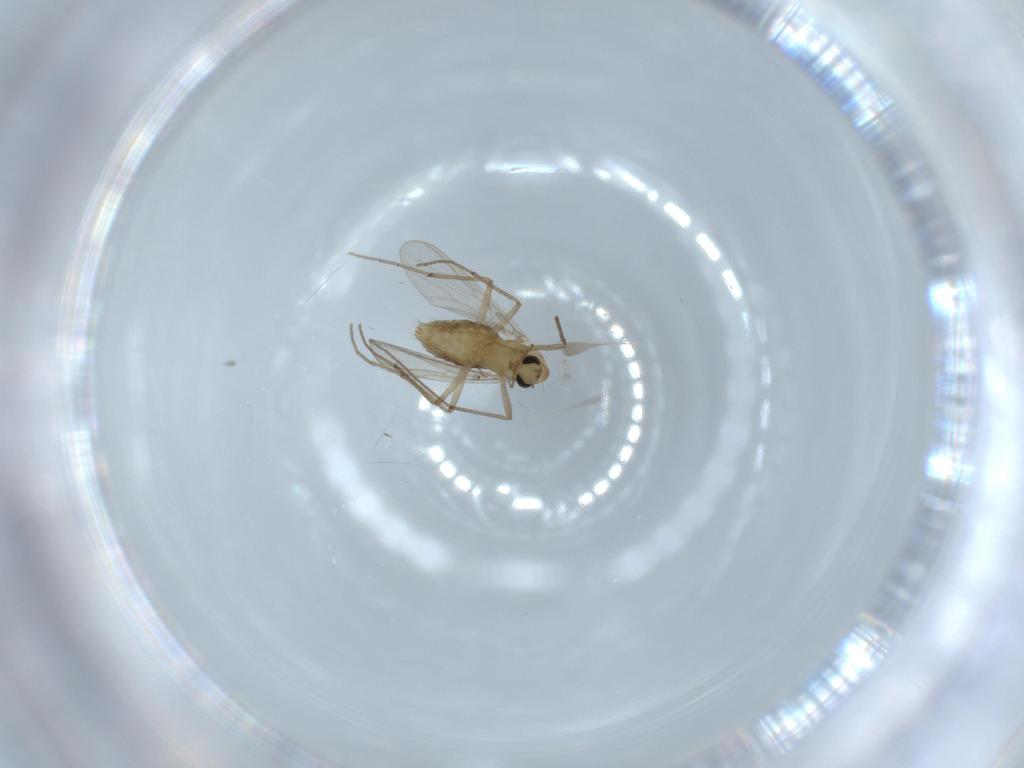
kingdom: Animalia
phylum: Arthropoda
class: Insecta
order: Diptera
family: Chironomidae
